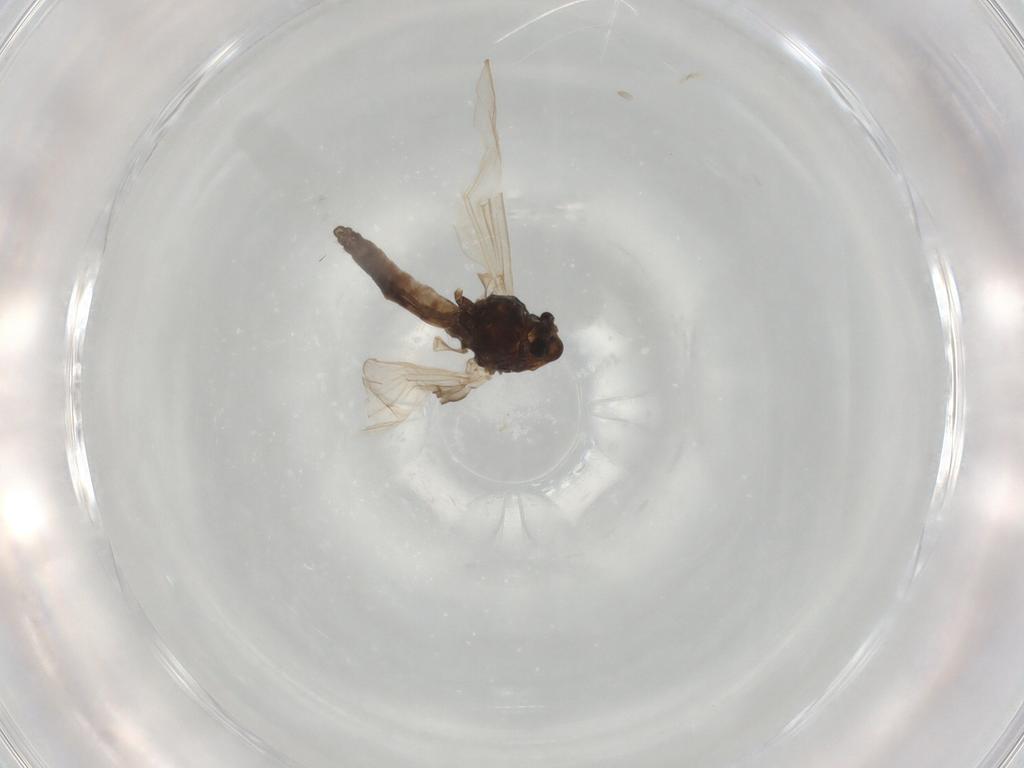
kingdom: Animalia
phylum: Arthropoda
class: Insecta
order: Diptera
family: Chironomidae
